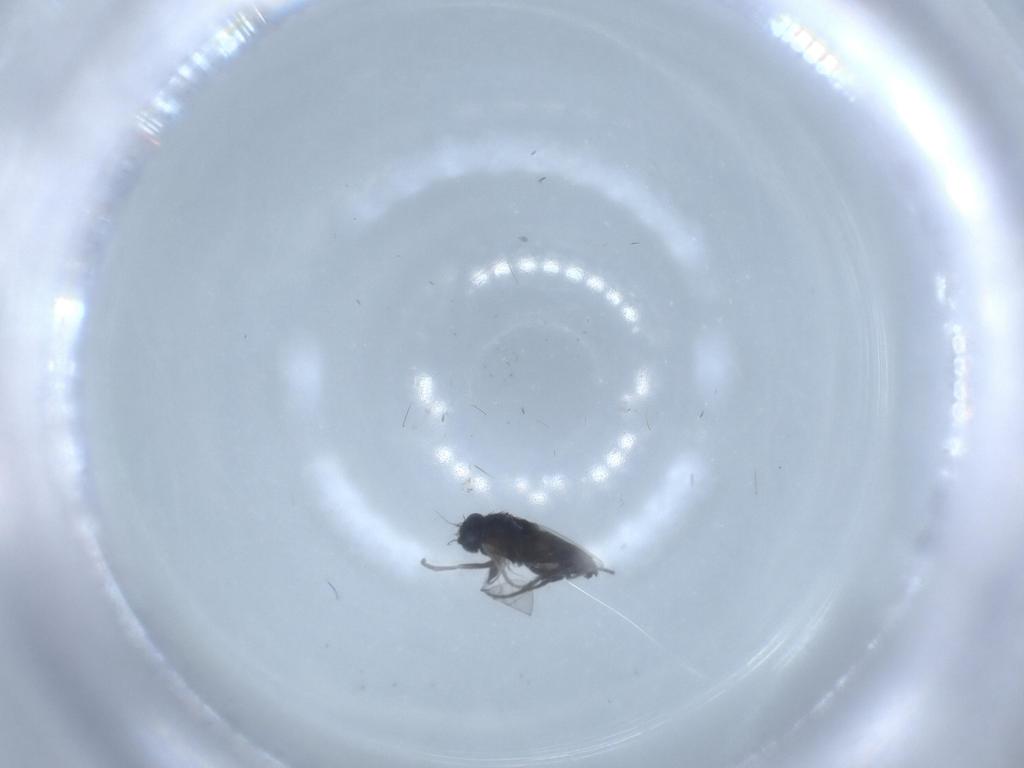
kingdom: Animalia
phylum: Arthropoda
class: Insecta
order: Diptera
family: Phoridae
